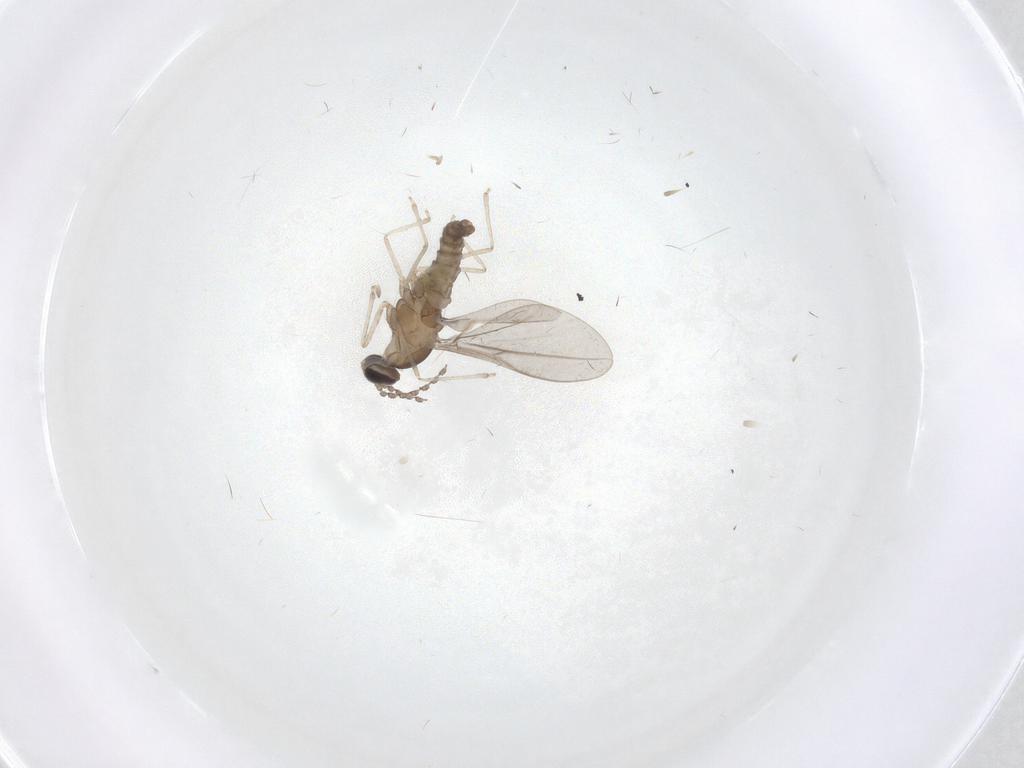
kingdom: Animalia
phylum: Arthropoda
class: Insecta
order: Diptera
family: Cecidomyiidae
